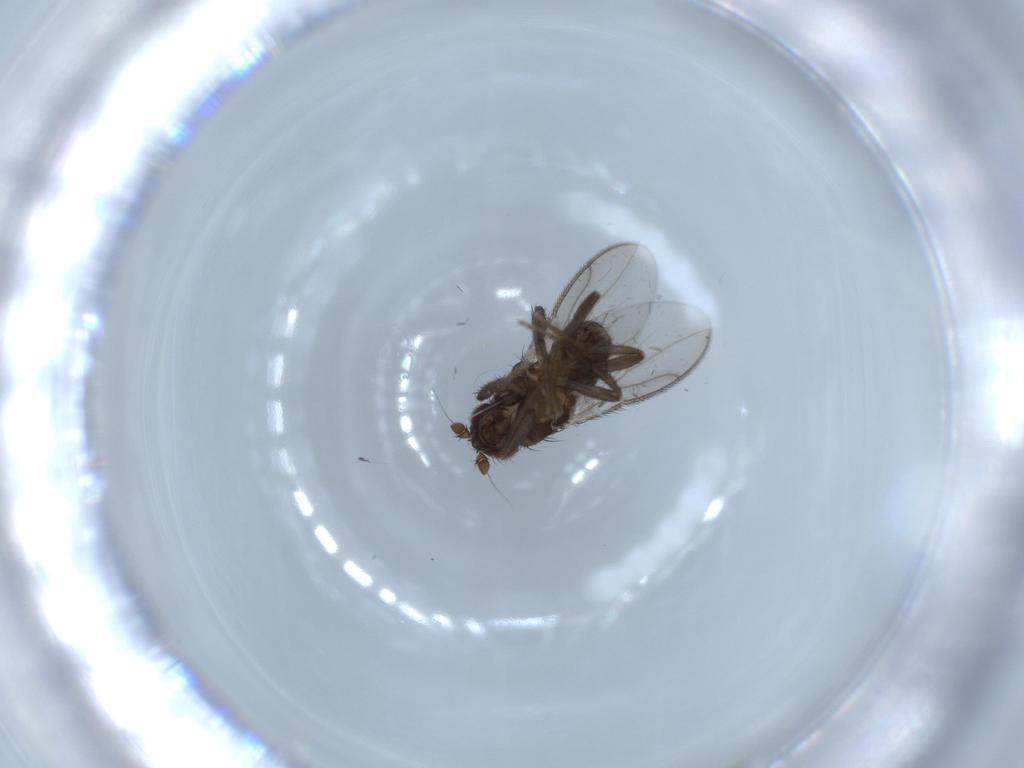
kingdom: Animalia
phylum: Arthropoda
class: Insecta
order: Diptera
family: Sphaeroceridae
